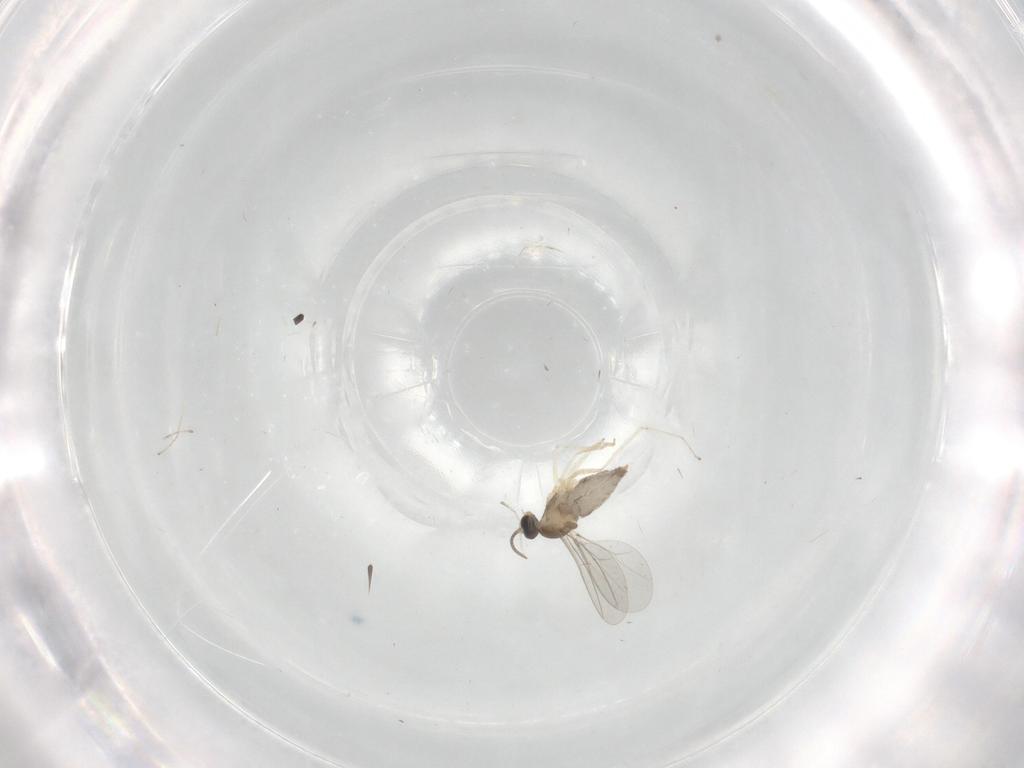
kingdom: Animalia
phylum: Arthropoda
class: Insecta
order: Diptera
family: Cecidomyiidae
